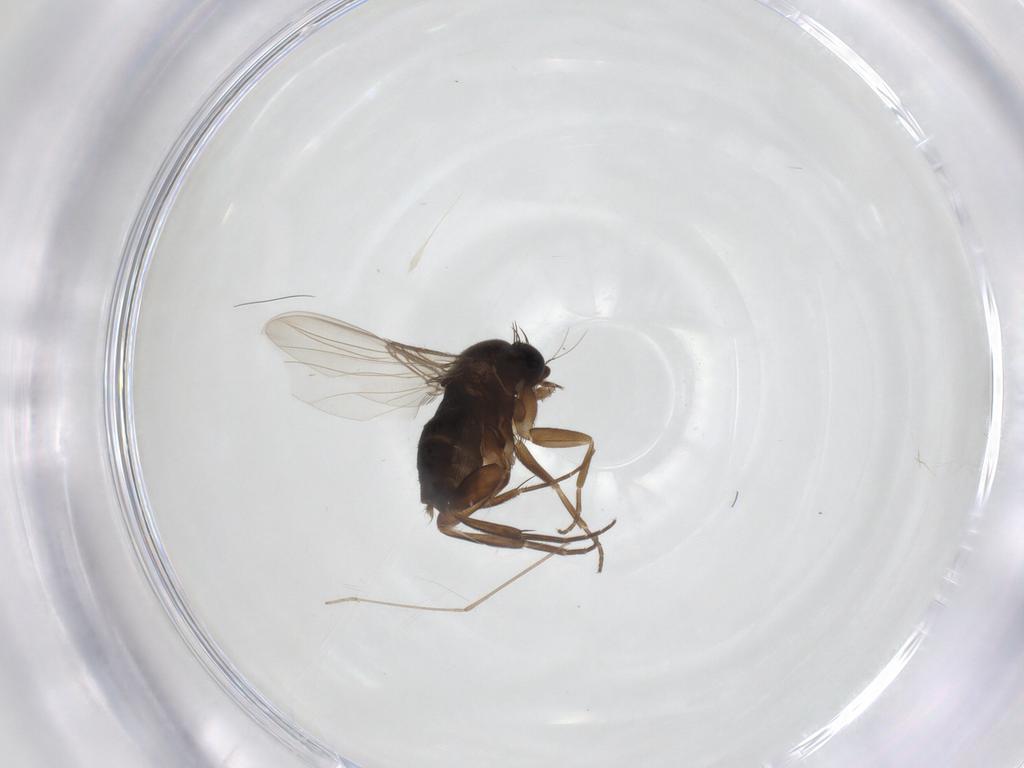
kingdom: Animalia
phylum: Arthropoda
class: Insecta
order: Diptera
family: Phoridae
